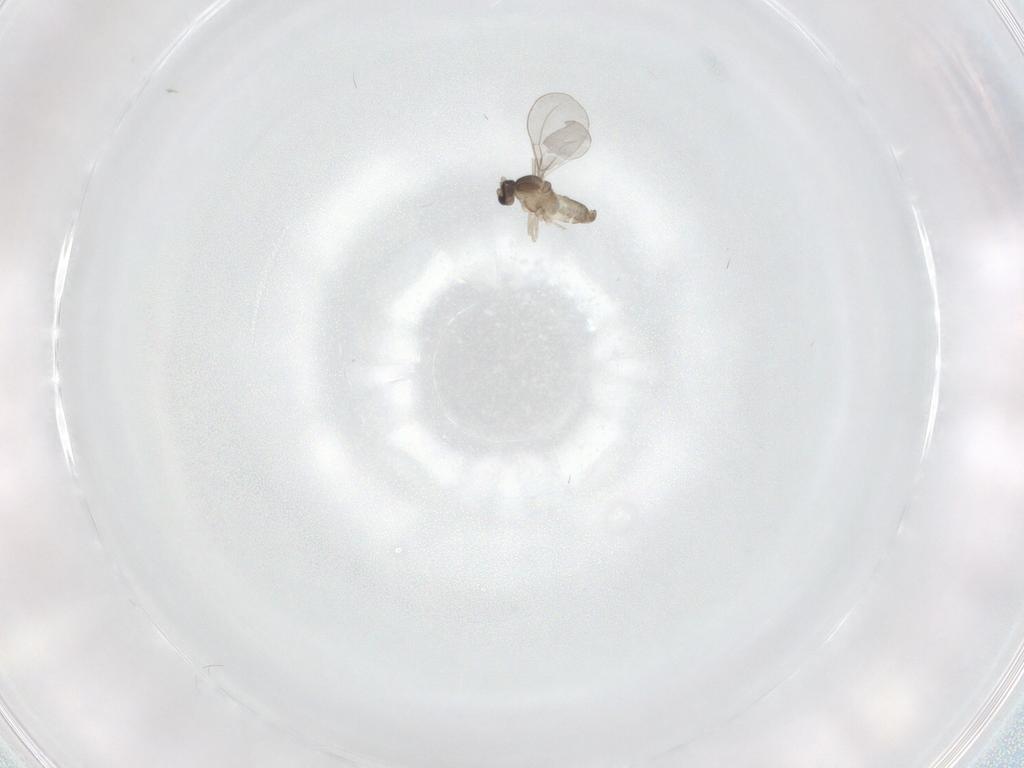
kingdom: Animalia
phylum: Arthropoda
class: Insecta
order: Diptera
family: Cecidomyiidae
